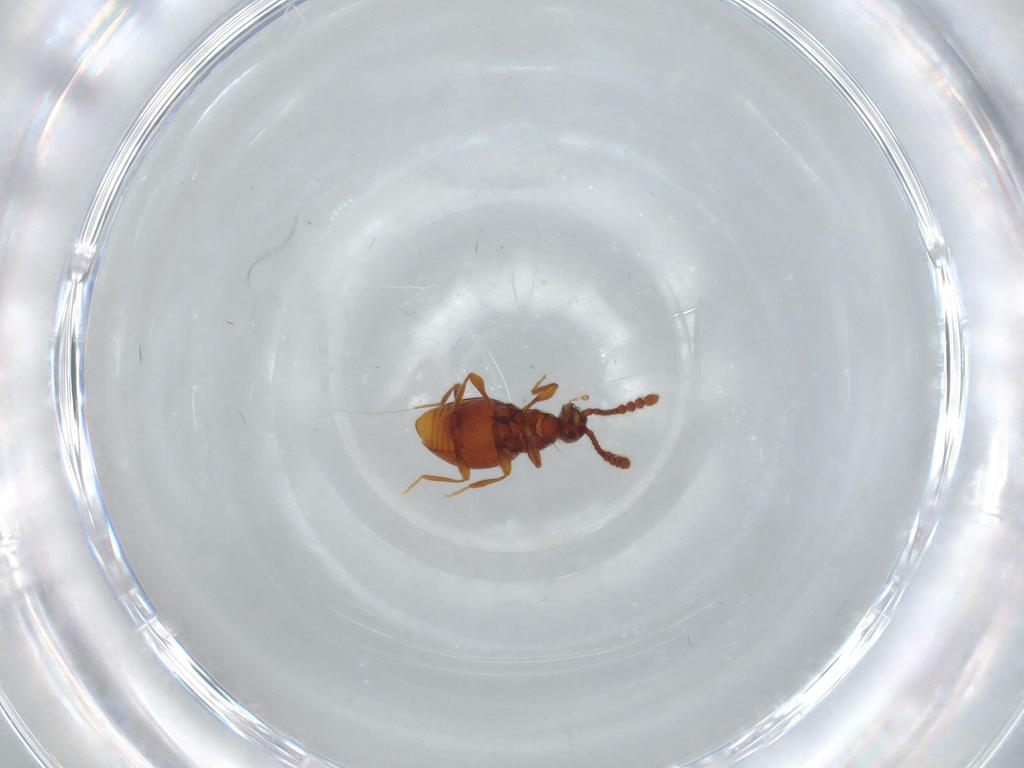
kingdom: Animalia
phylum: Arthropoda
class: Insecta
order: Coleoptera
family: Staphylinidae
